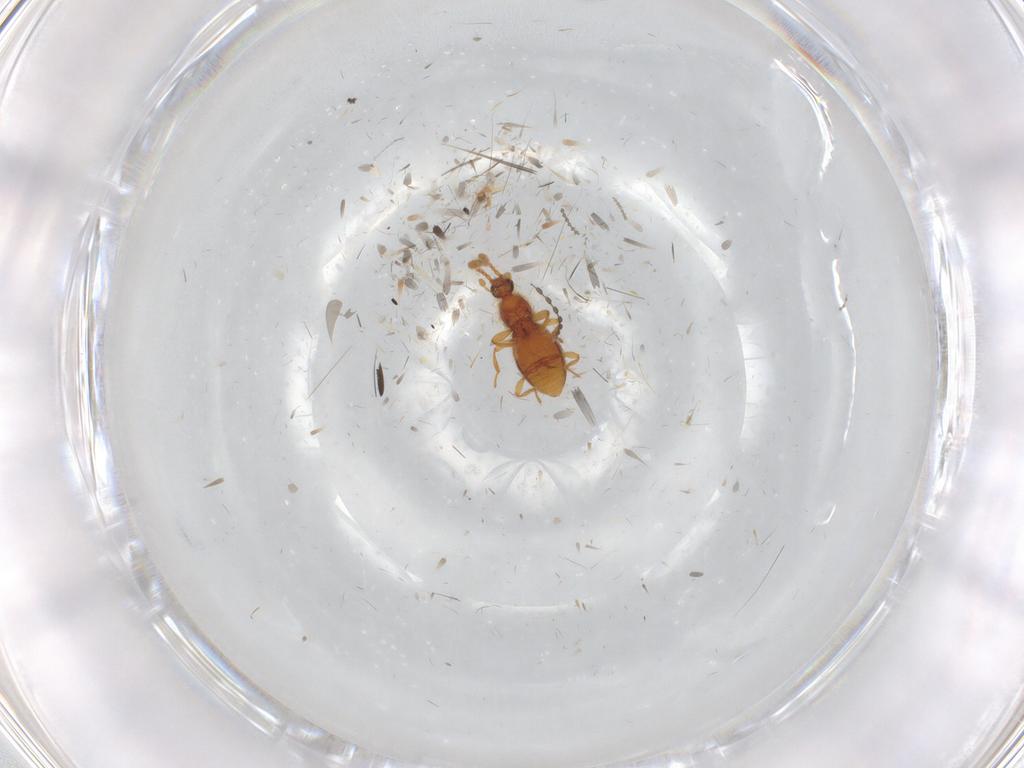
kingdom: Animalia
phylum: Arthropoda
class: Insecta
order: Coleoptera
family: Staphylinidae
